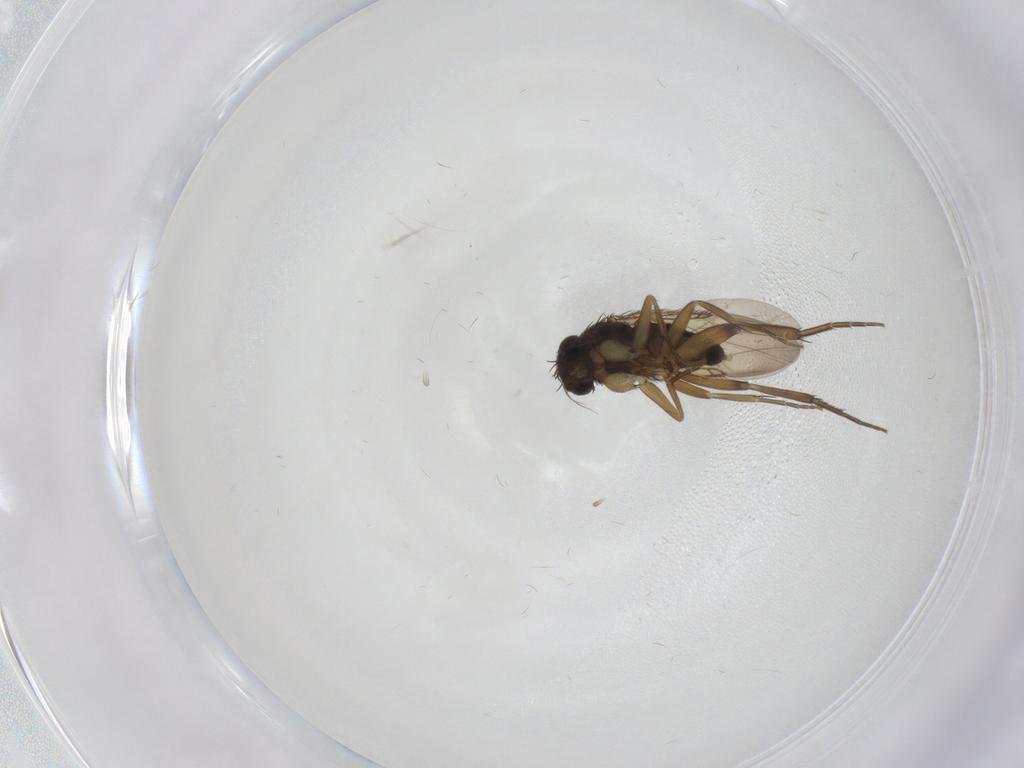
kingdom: Animalia
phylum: Arthropoda
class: Insecta
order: Diptera
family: Phoridae
